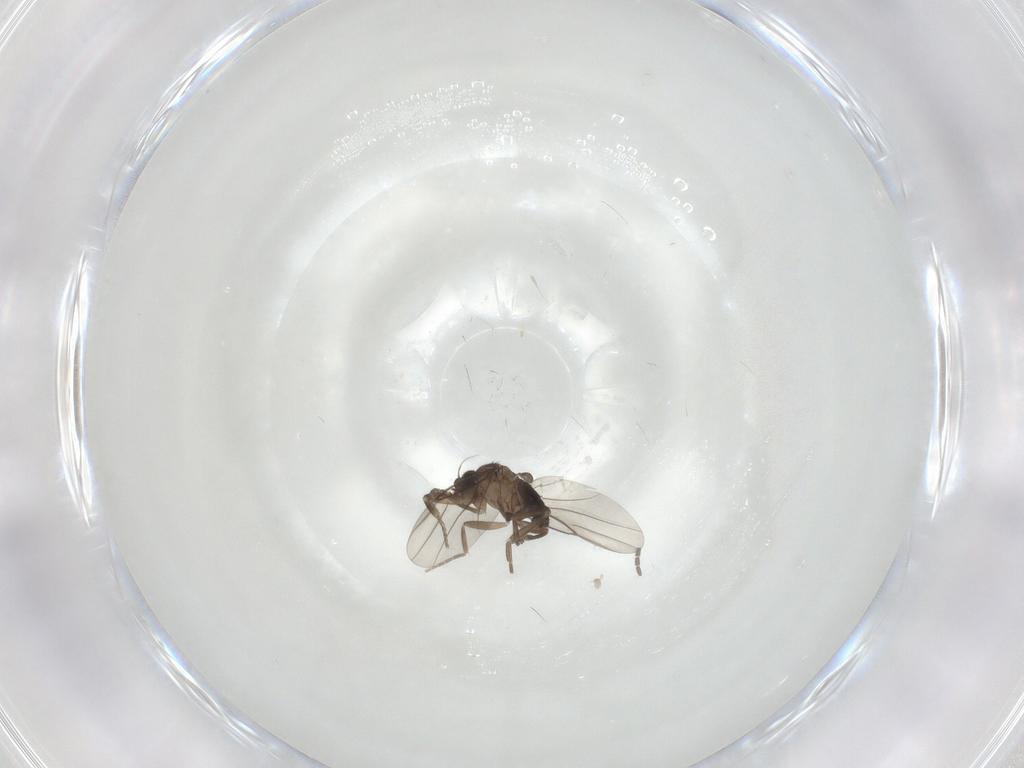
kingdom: Animalia
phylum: Arthropoda
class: Insecta
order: Diptera
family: Sciaridae
